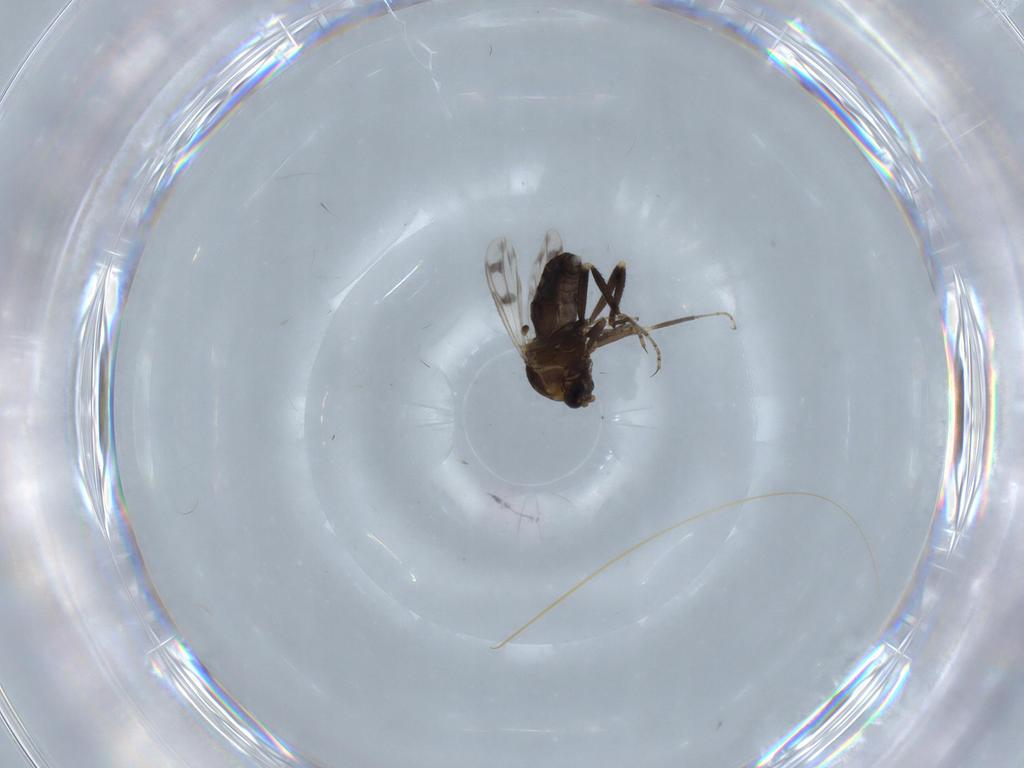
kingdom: Animalia
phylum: Arthropoda
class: Insecta
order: Diptera
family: Ceratopogonidae
